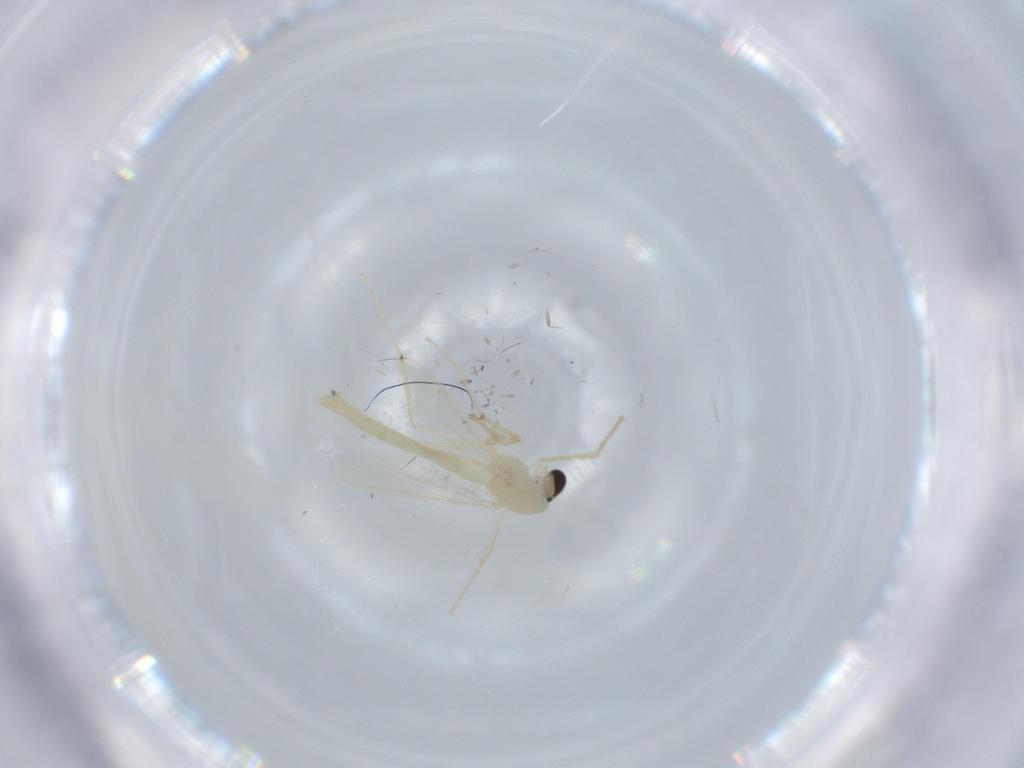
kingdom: Animalia
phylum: Arthropoda
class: Insecta
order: Diptera
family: Chironomidae
